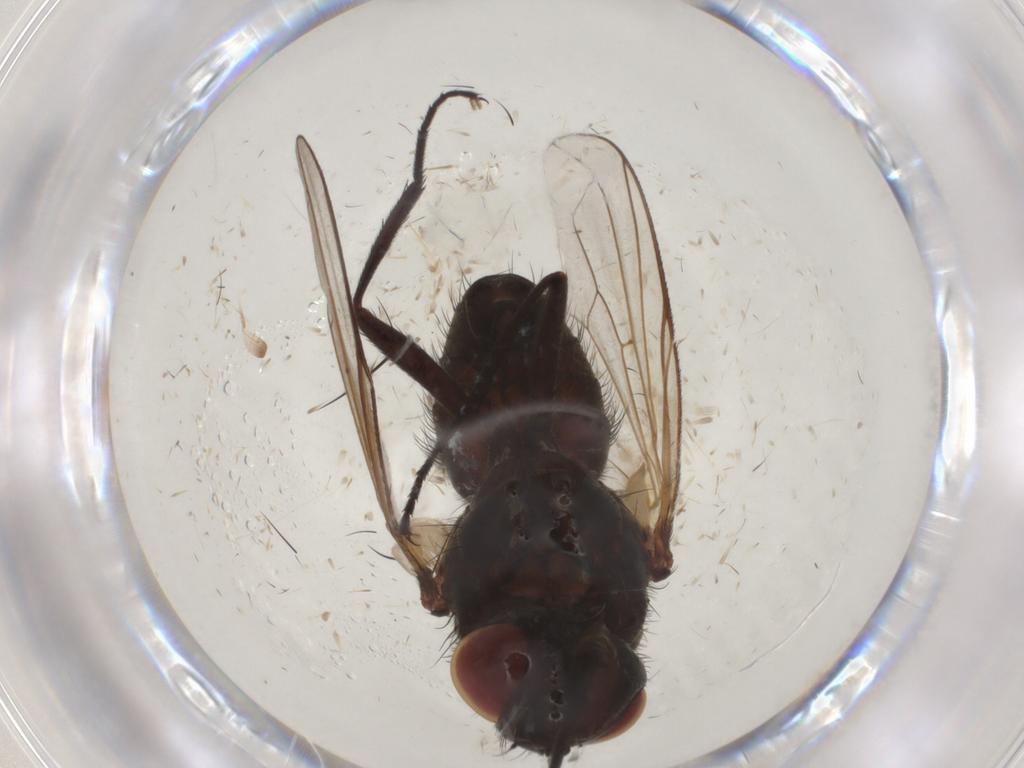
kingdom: Animalia
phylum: Arthropoda
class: Insecta
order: Diptera
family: Tachinidae
